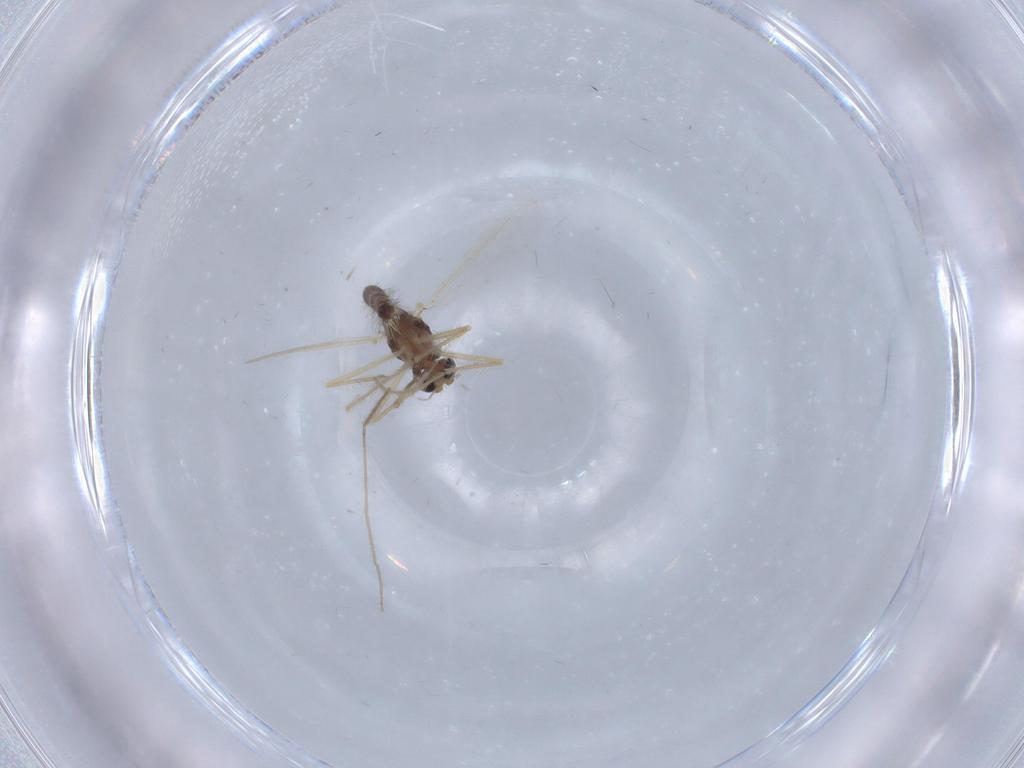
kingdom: Animalia
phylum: Arthropoda
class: Insecta
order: Diptera
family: Chironomidae
